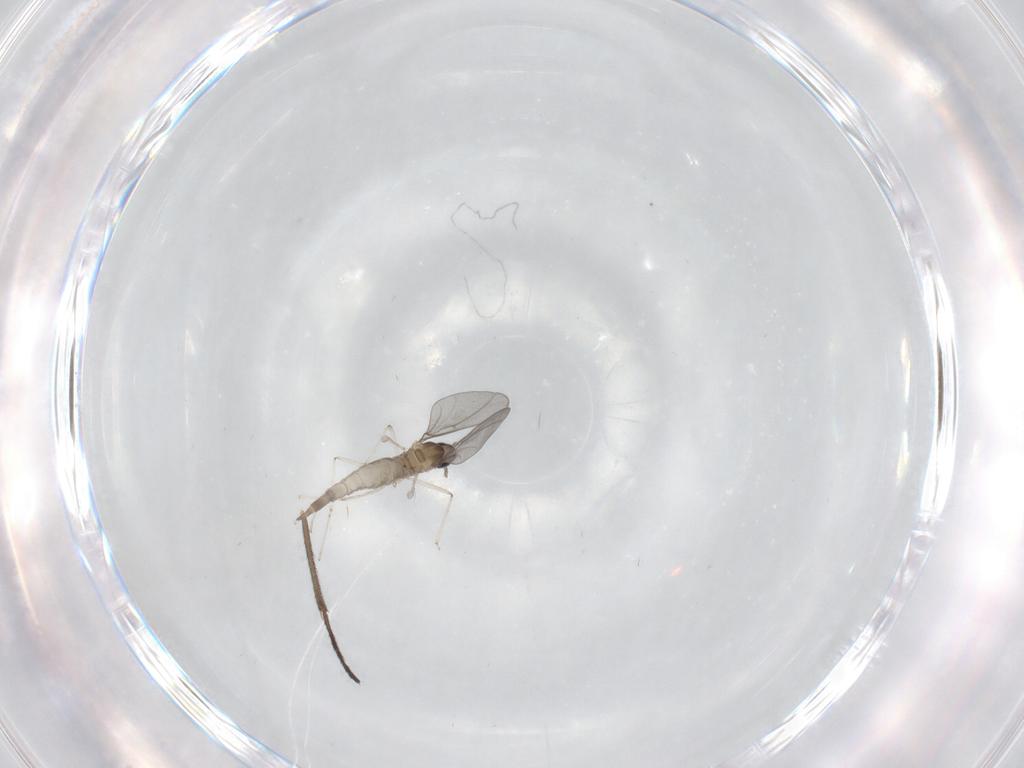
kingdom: Animalia
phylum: Arthropoda
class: Insecta
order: Diptera
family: Cecidomyiidae
